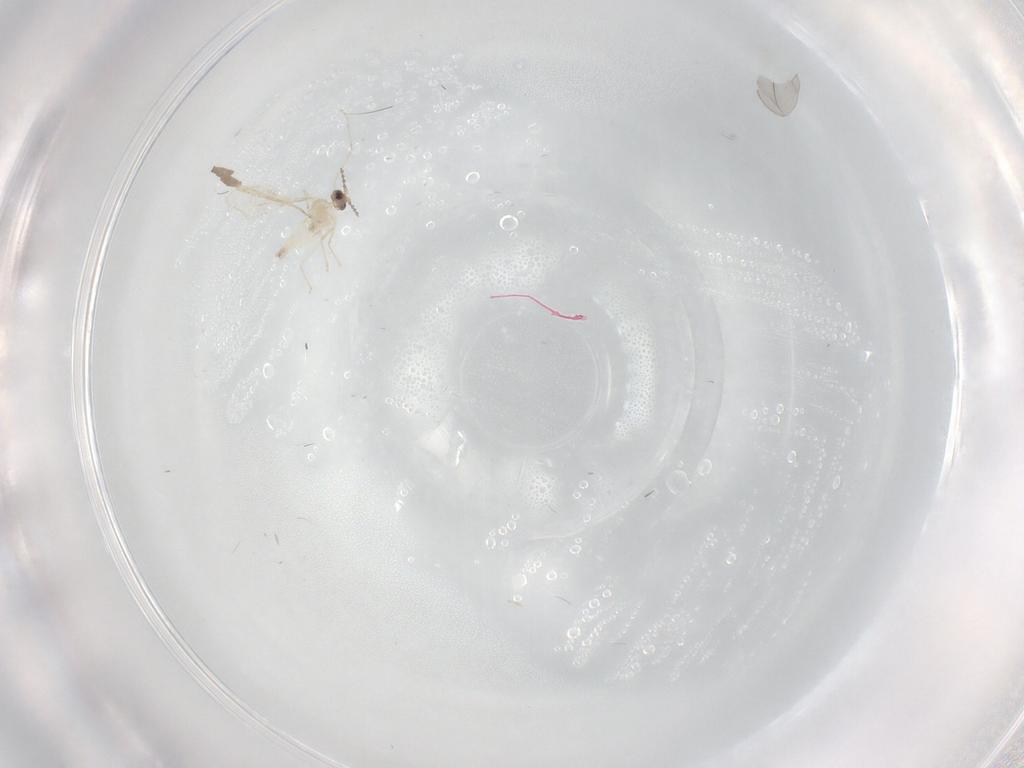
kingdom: Animalia
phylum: Arthropoda
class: Insecta
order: Diptera
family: Chironomidae
